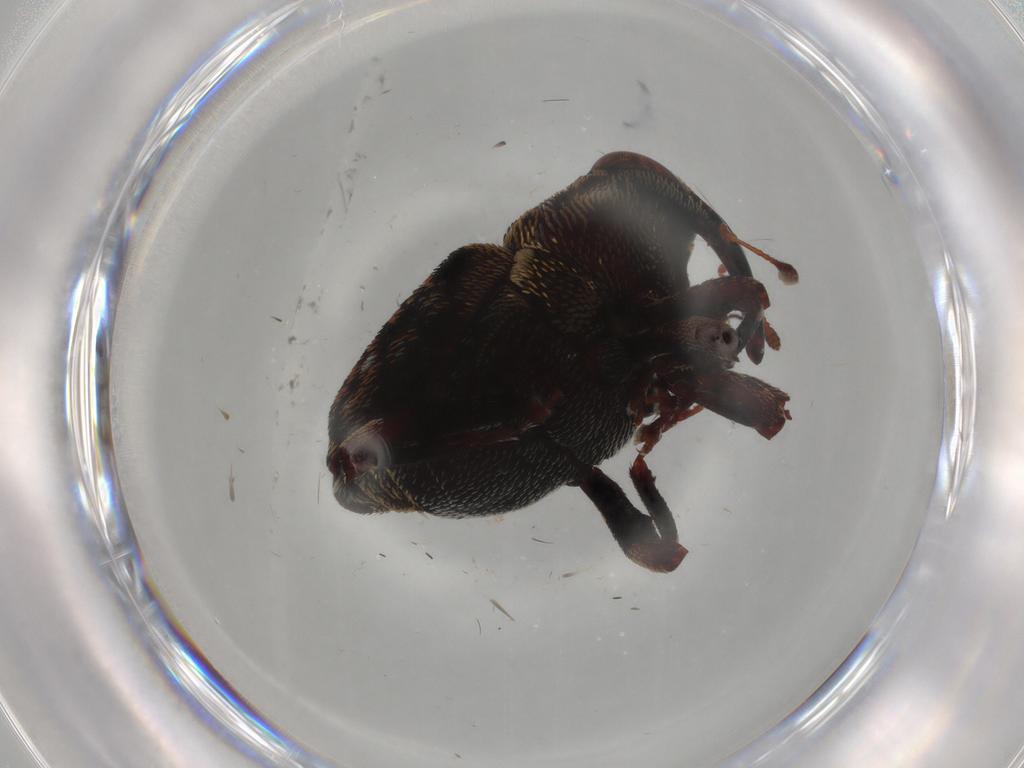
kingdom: Animalia
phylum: Arthropoda
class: Insecta
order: Coleoptera
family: Curculionidae
